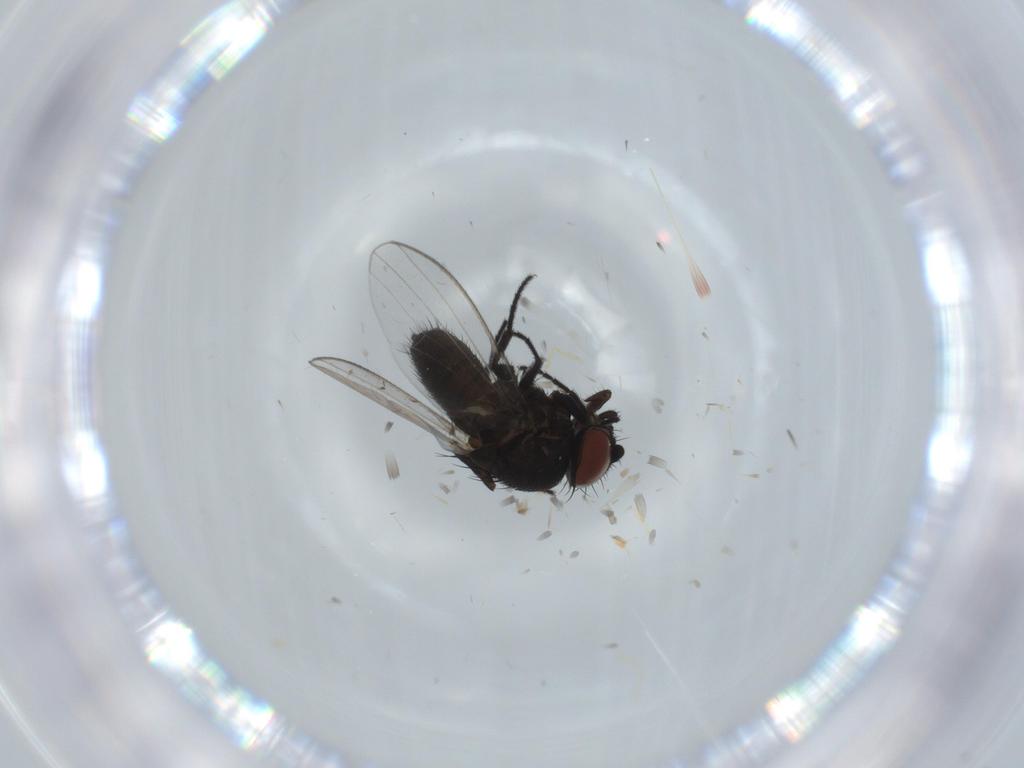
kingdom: Animalia
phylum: Arthropoda
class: Insecta
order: Diptera
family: Milichiidae
